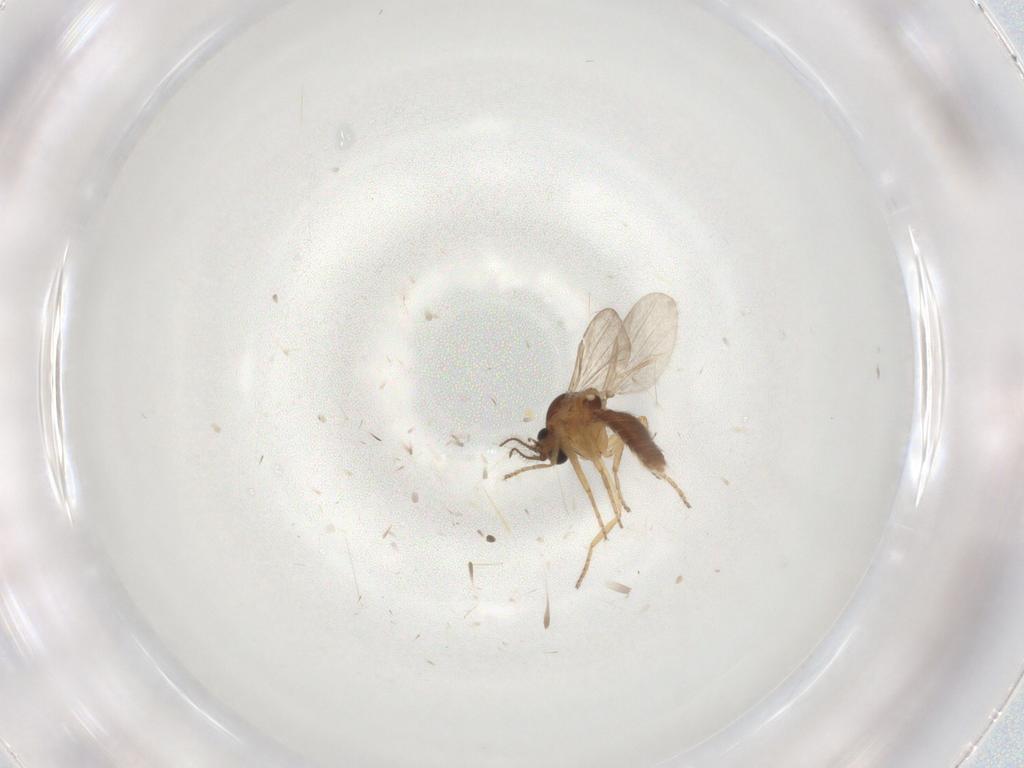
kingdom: Animalia
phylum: Arthropoda
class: Insecta
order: Diptera
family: Ceratopogonidae
